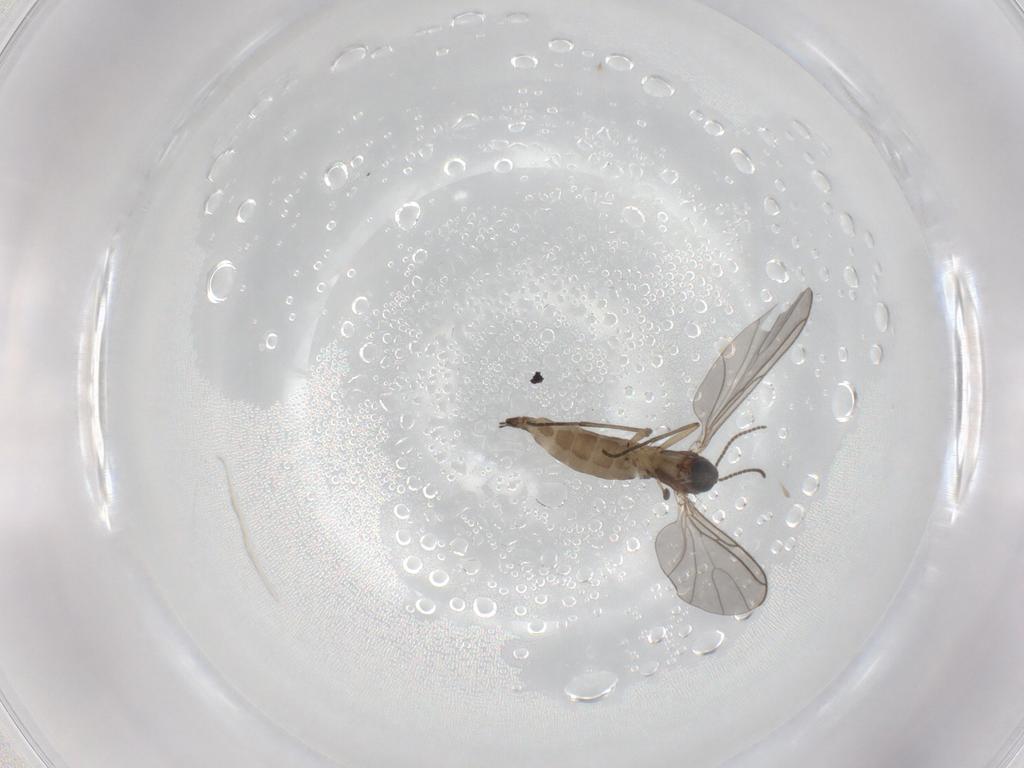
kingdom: Animalia
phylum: Arthropoda
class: Insecta
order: Diptera
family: Sciaridae
